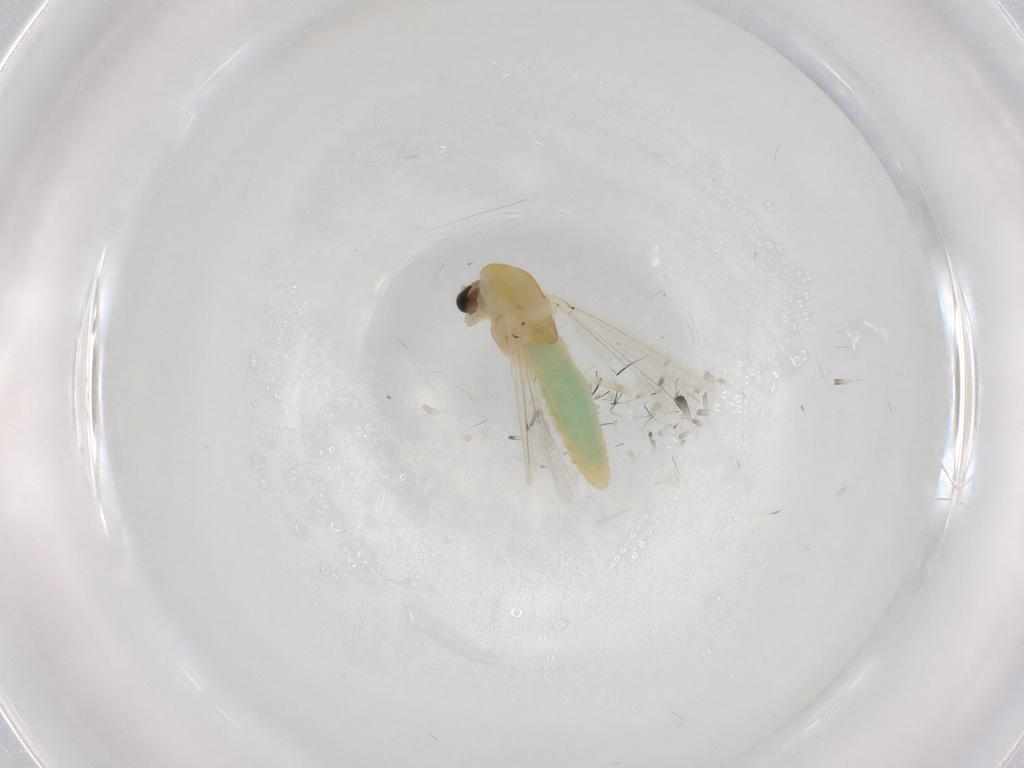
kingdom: Animalia
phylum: Arthropoda
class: Insecta
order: Diptera
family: Chironomidae
